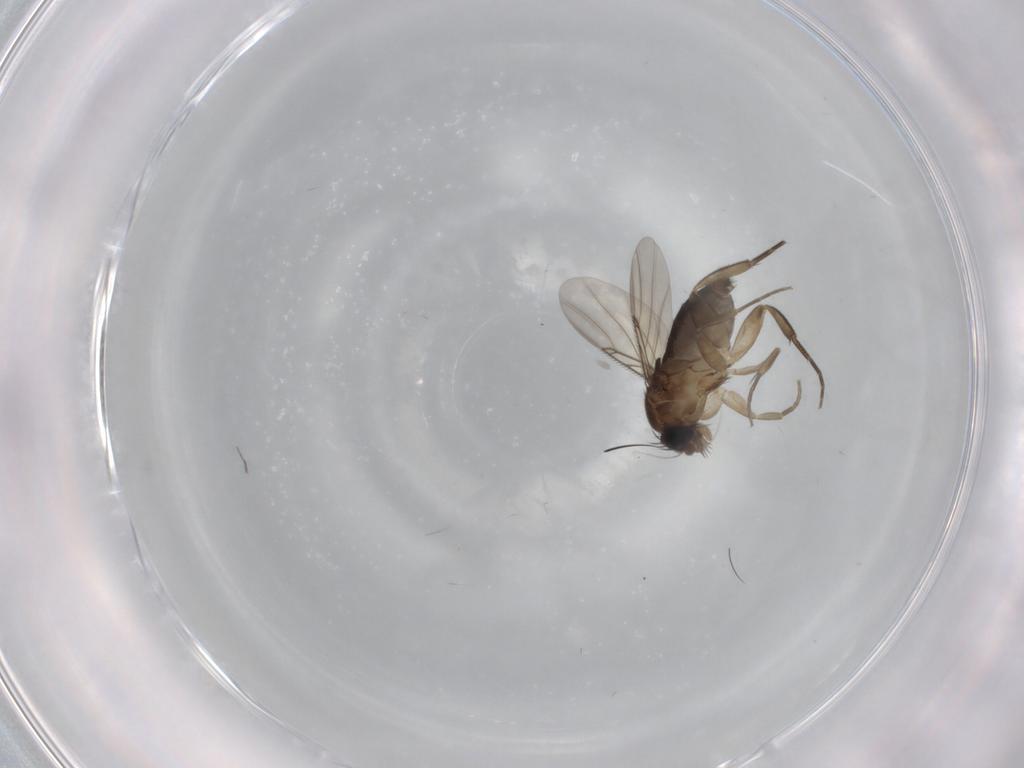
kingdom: Animalia
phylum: Arthropoda
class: Insecta
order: Diptera
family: Phoridae
